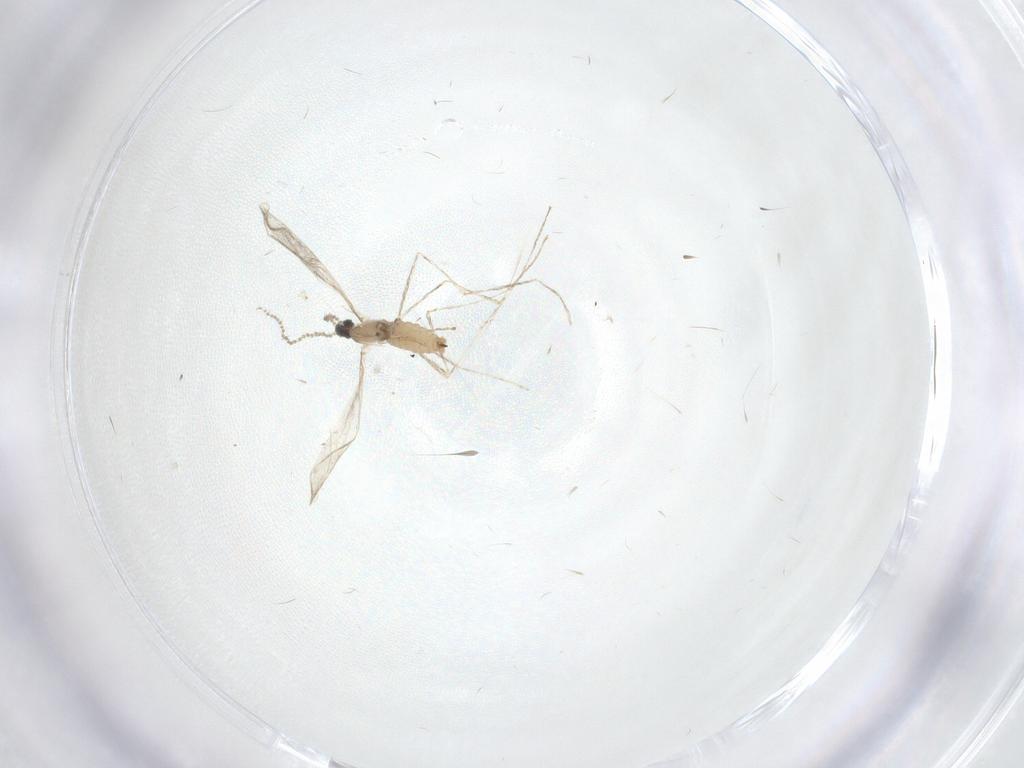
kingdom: Animalia
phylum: Arthropoda
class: Insecta
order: Diptera
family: Cecidomyiidae
